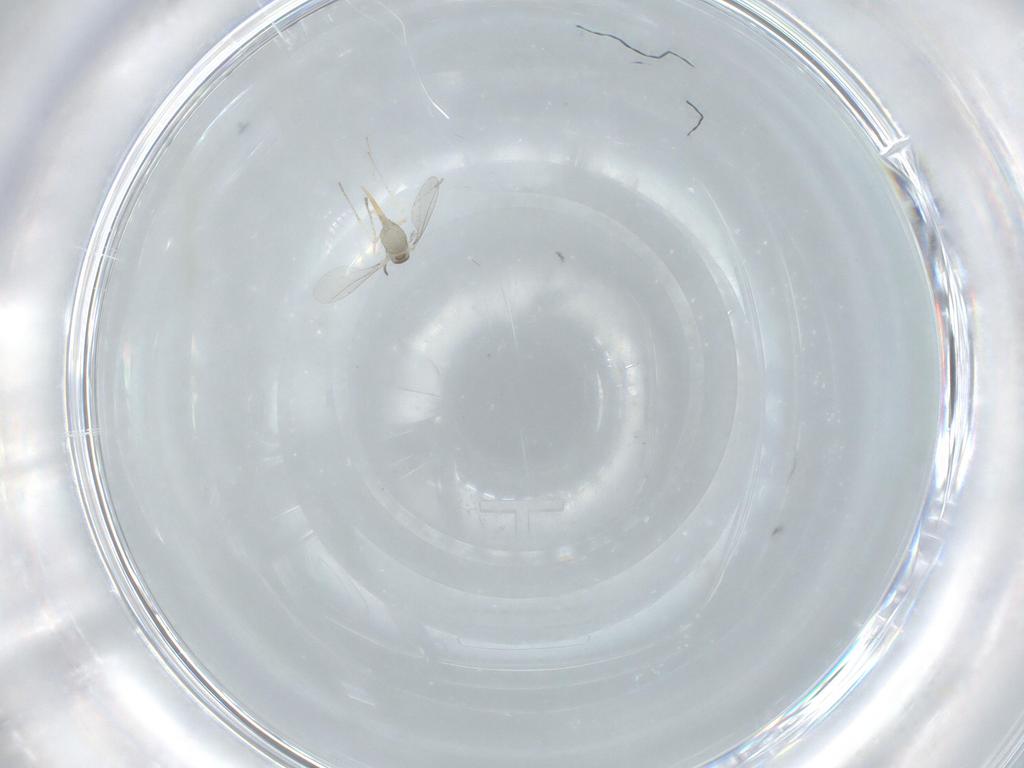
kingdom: Animalia
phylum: Arthropoda
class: Insecta
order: Diptera
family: Cecidomyiidae
